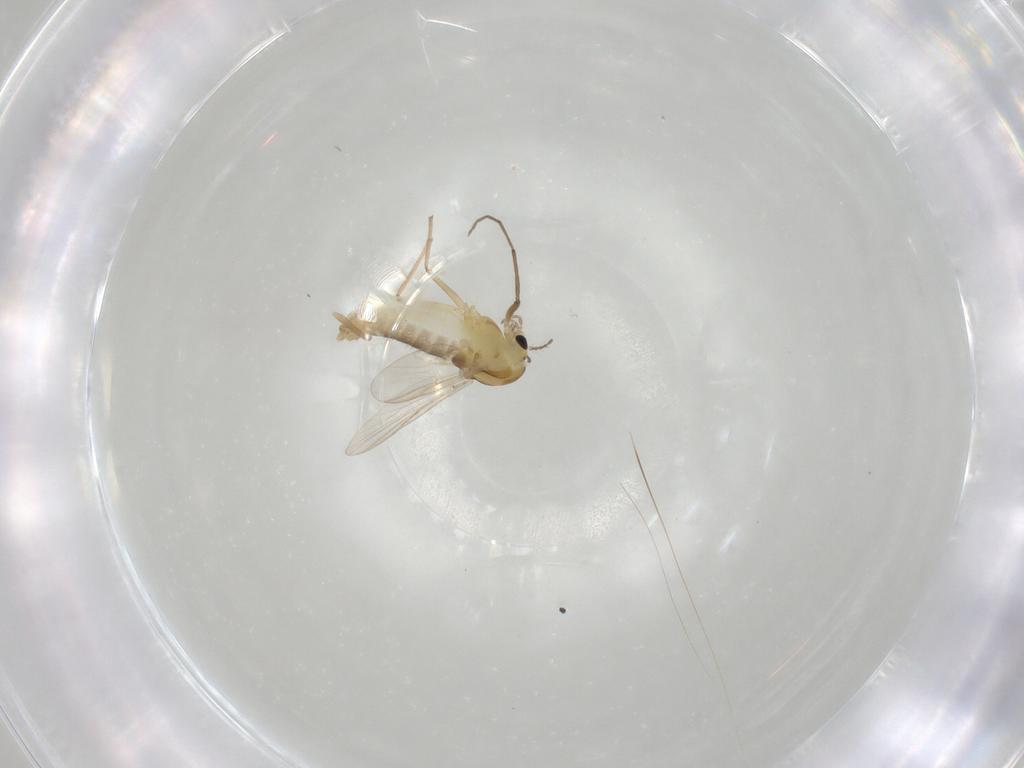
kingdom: Animalia
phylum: Arthropoda
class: Insecta
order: Diptera
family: Chironomidae
